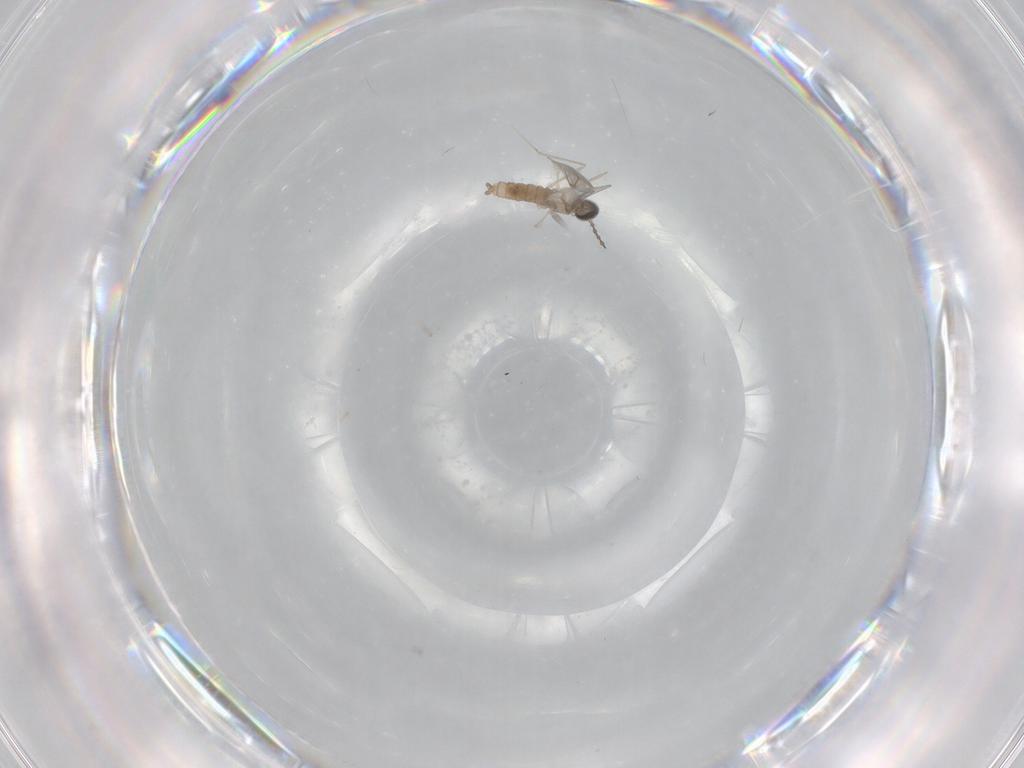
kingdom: Animalia
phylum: Arthropoda
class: Insecta
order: Diptera
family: Cecidomyiidae
